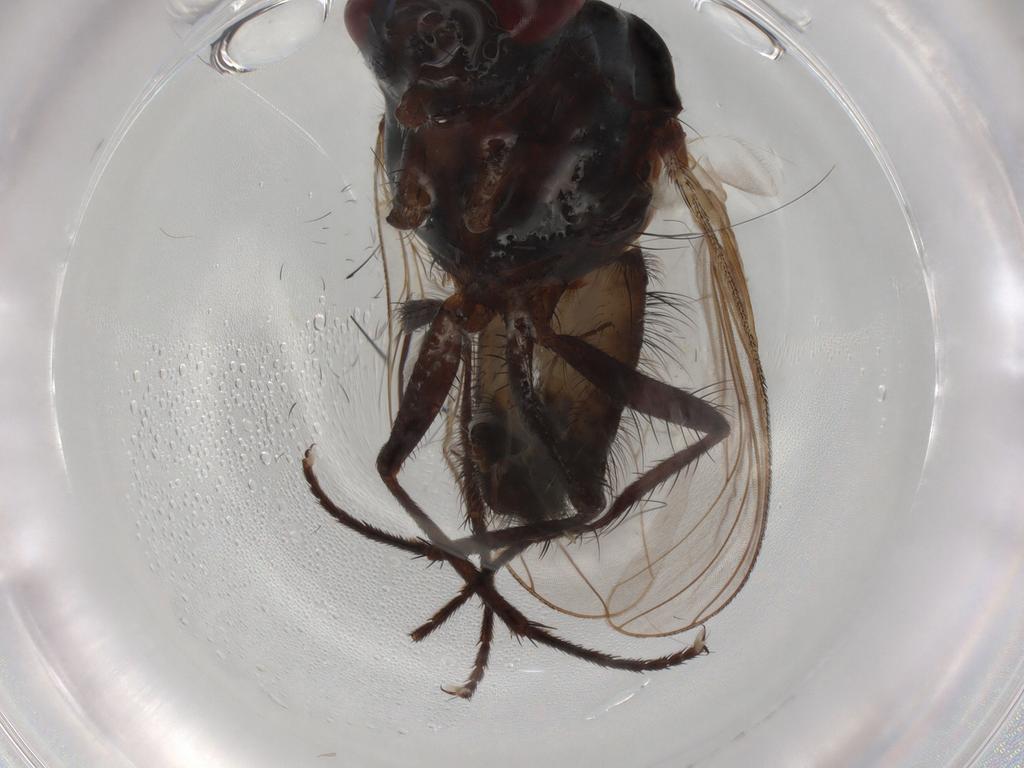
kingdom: Animalia
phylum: Arthropoda
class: Insecta
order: Diptera
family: Anthomyiidae
